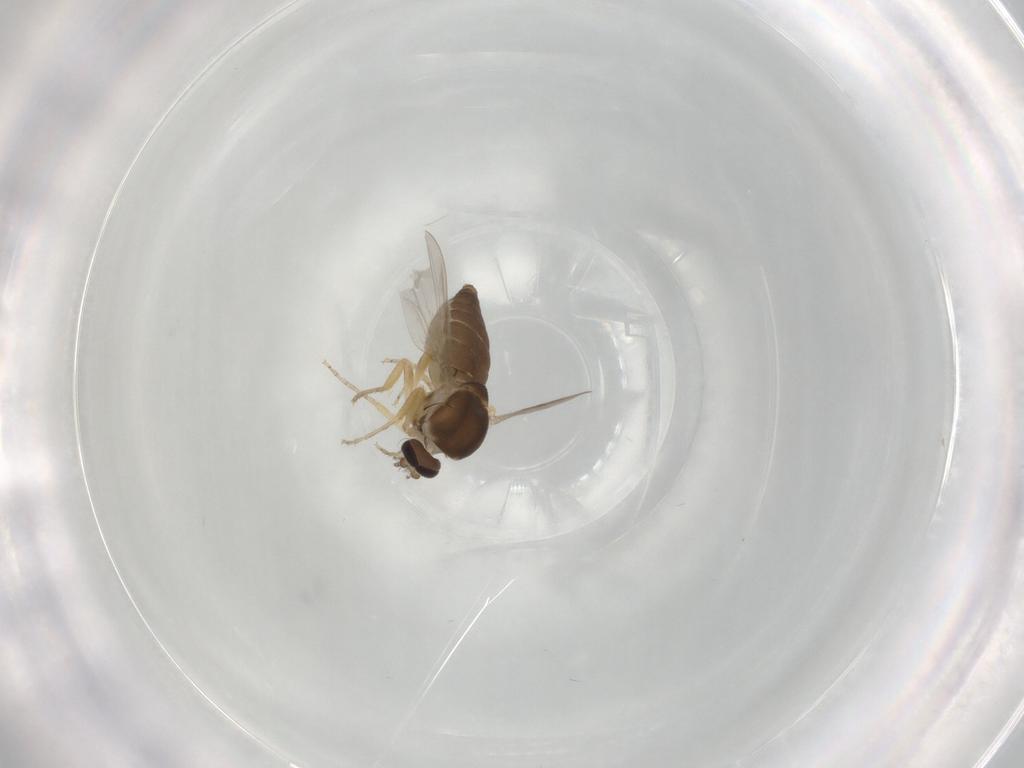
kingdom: Animalia
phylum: Arthropoda
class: Insecta
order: Diptera
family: Ceratopogonidae
